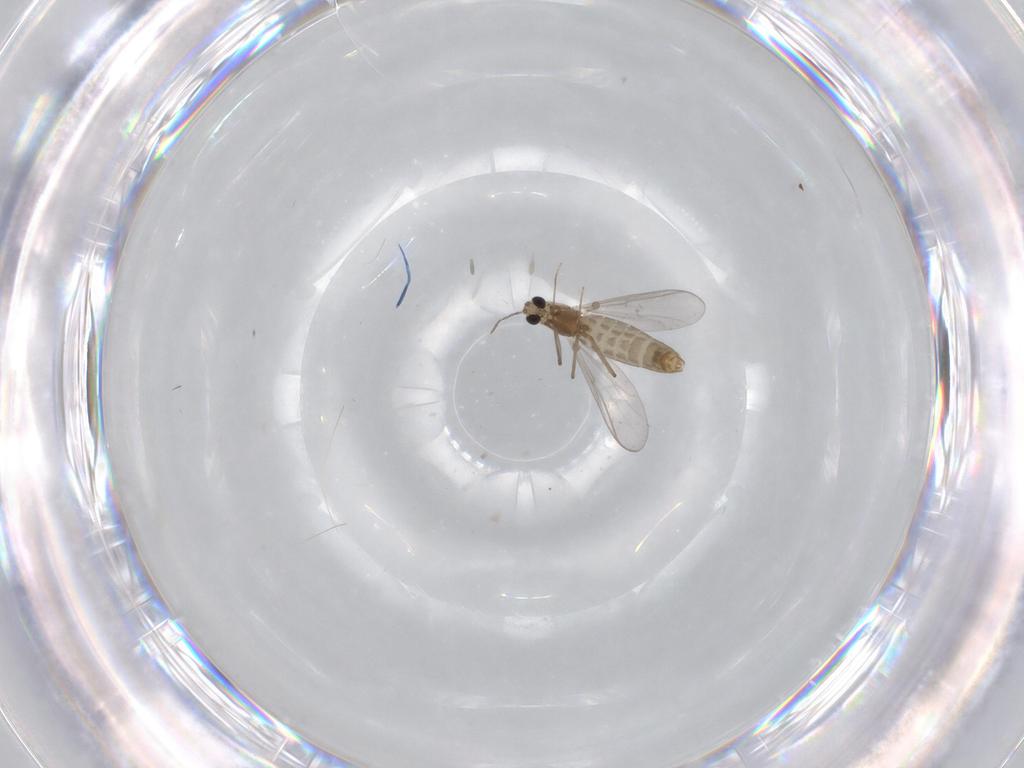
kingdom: Animalia
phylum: Arthropoda
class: Insecta
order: Diptera
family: Chironomidae
